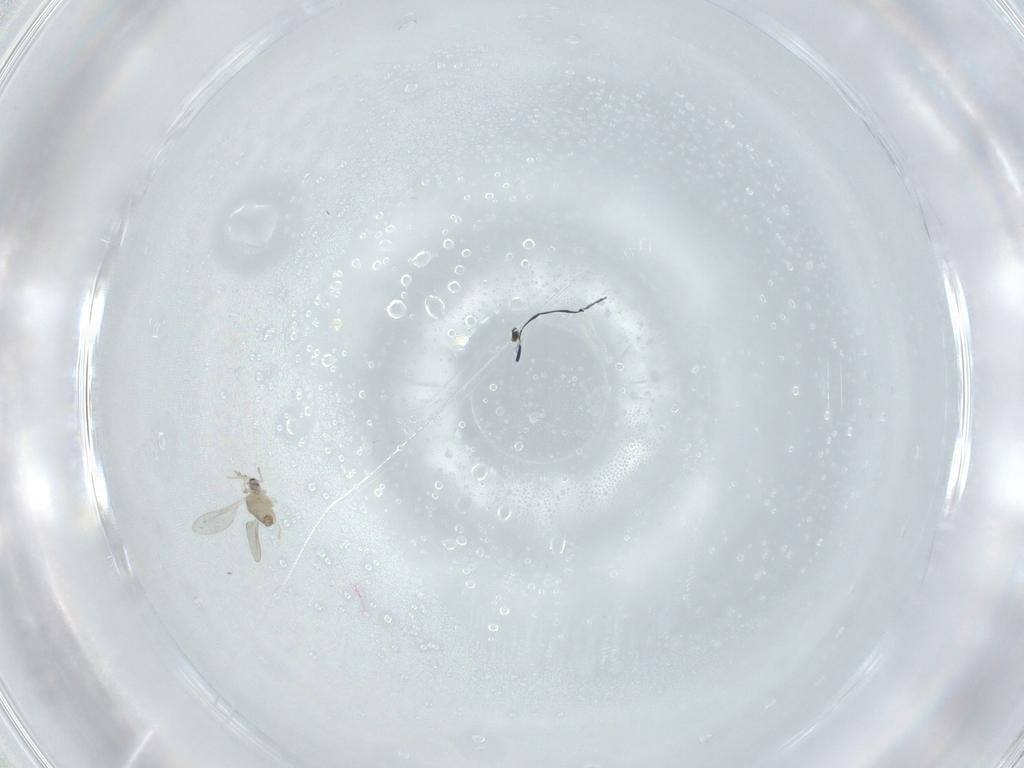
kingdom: Animalia
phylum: Arthropoda
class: Insecta
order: Diptera
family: Cecidomyiidae
